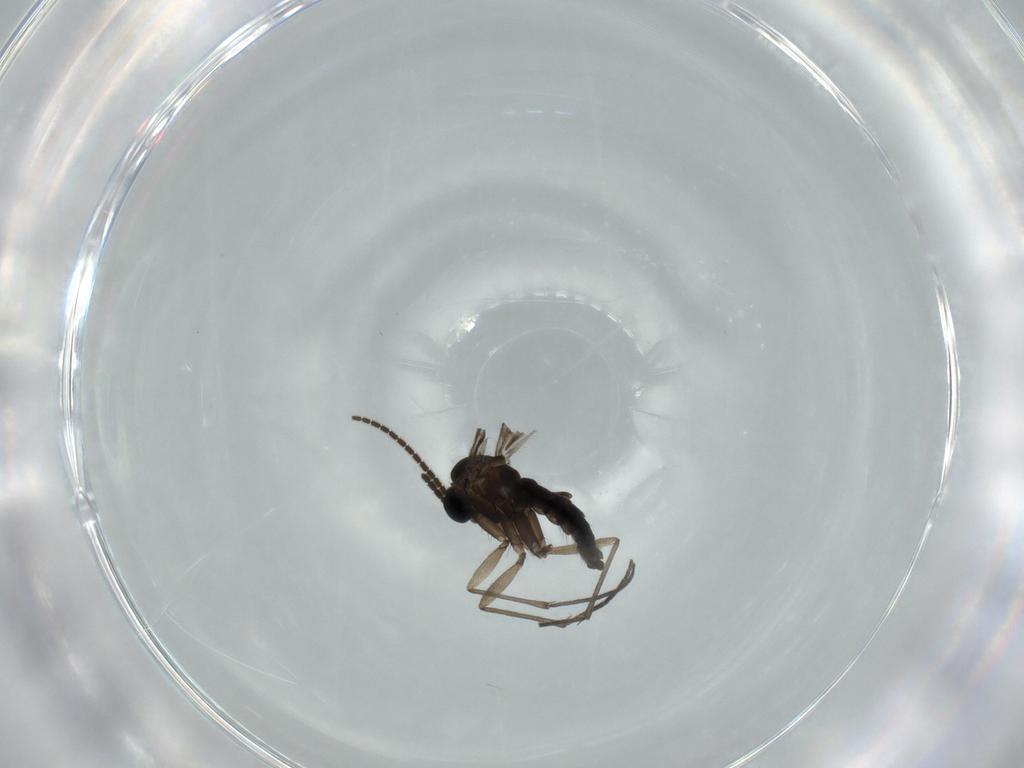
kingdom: Animalia
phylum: Arthropoda
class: Insecta
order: Diptera
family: Sciaridae
